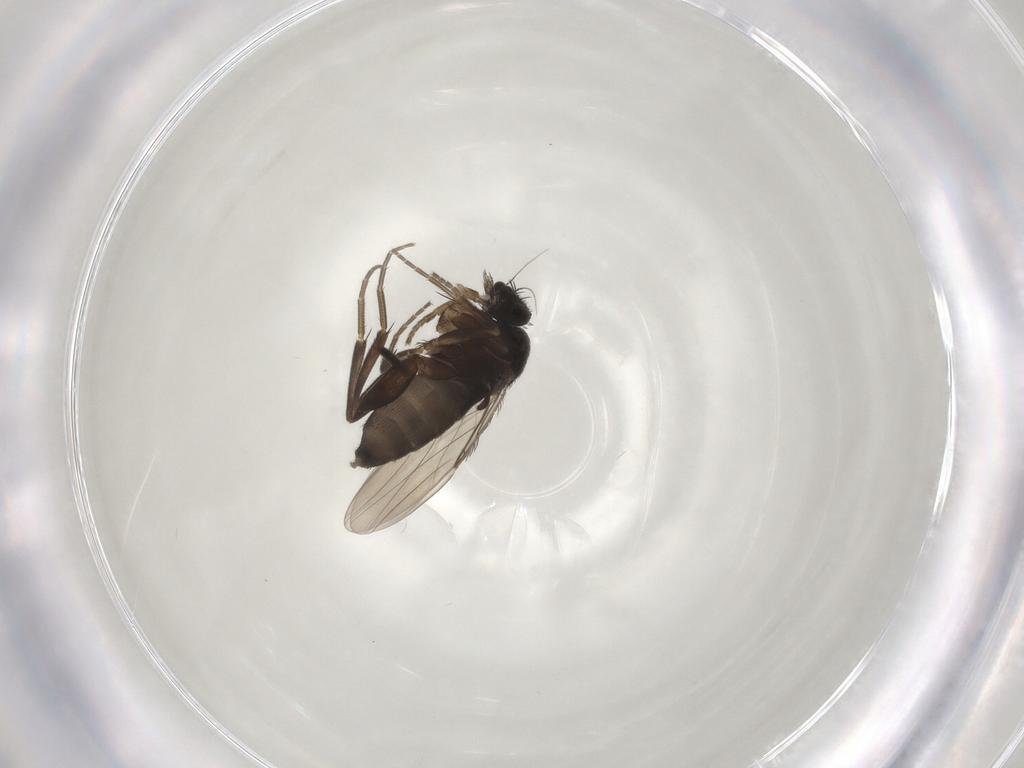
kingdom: Animalia
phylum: Arthropoda
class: Insecta
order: Diptera
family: Phoridae
